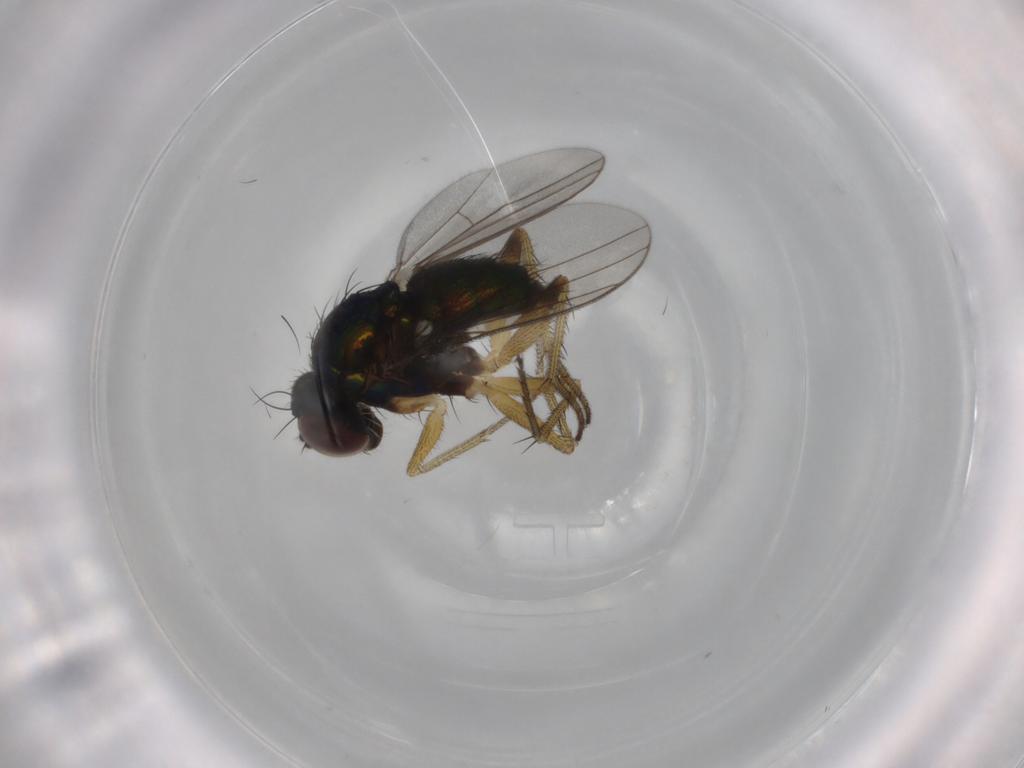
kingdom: Animalia
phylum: Arthropoda
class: Insecta
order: Diptera
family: Dolichopodidae
